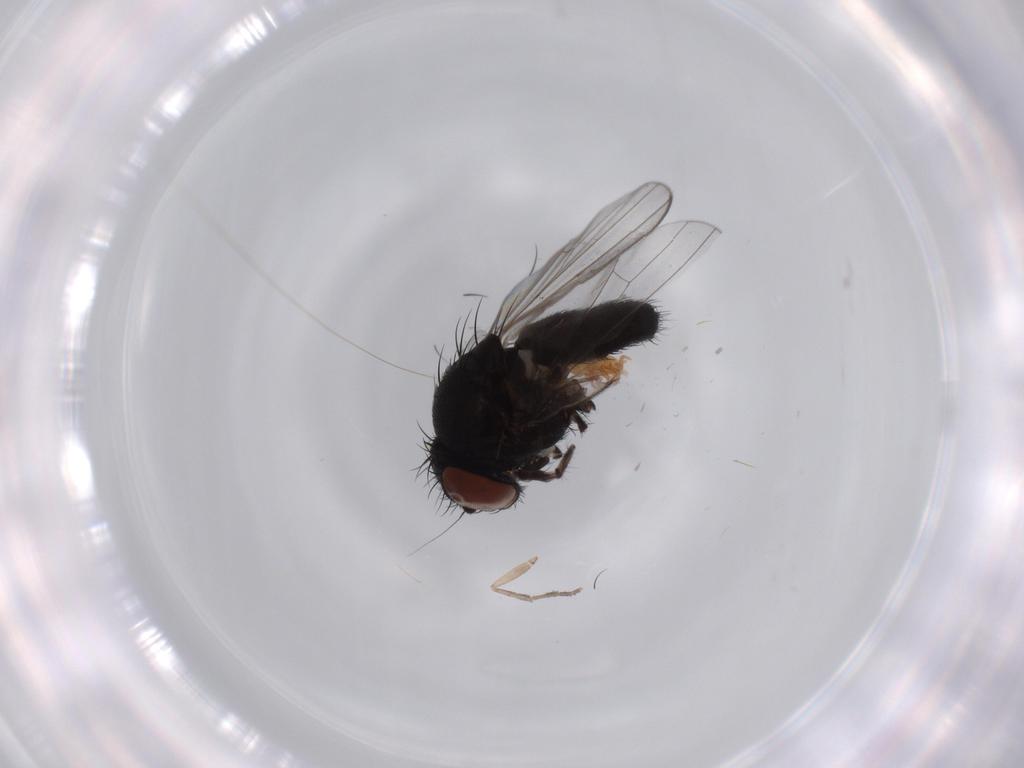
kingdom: Animalia
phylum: Arthropoda
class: Insecta
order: Diptera
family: Milichiidae
